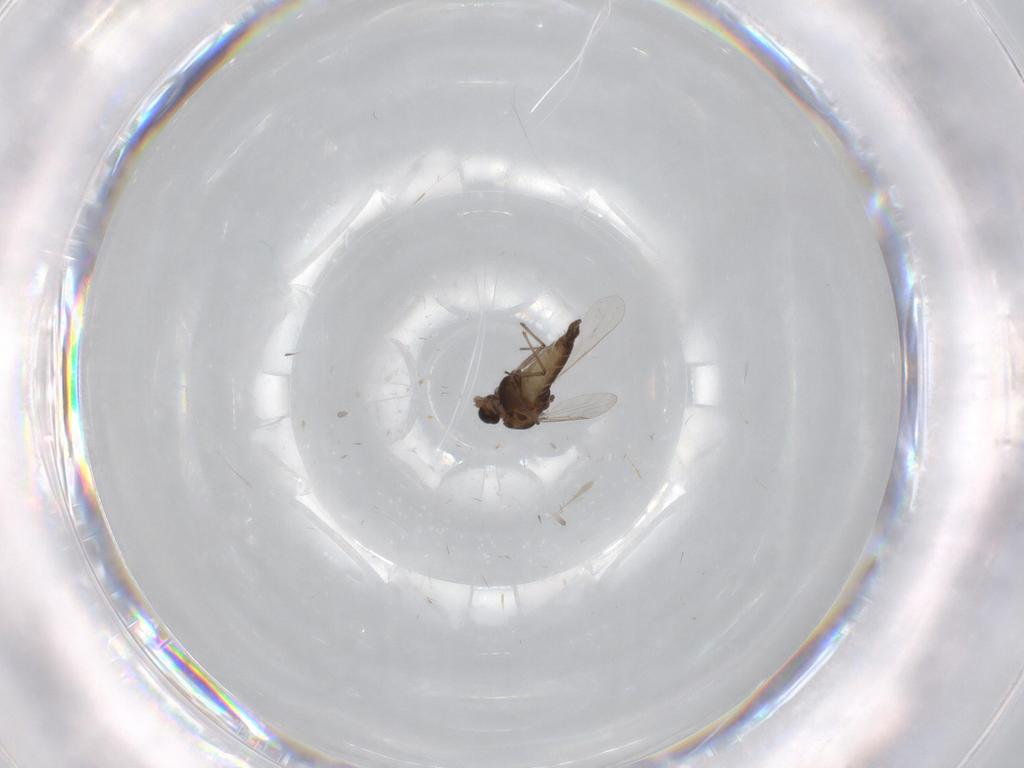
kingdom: Animalia
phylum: Arthropoda
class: Insecta
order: Diptera
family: Chironomidae
